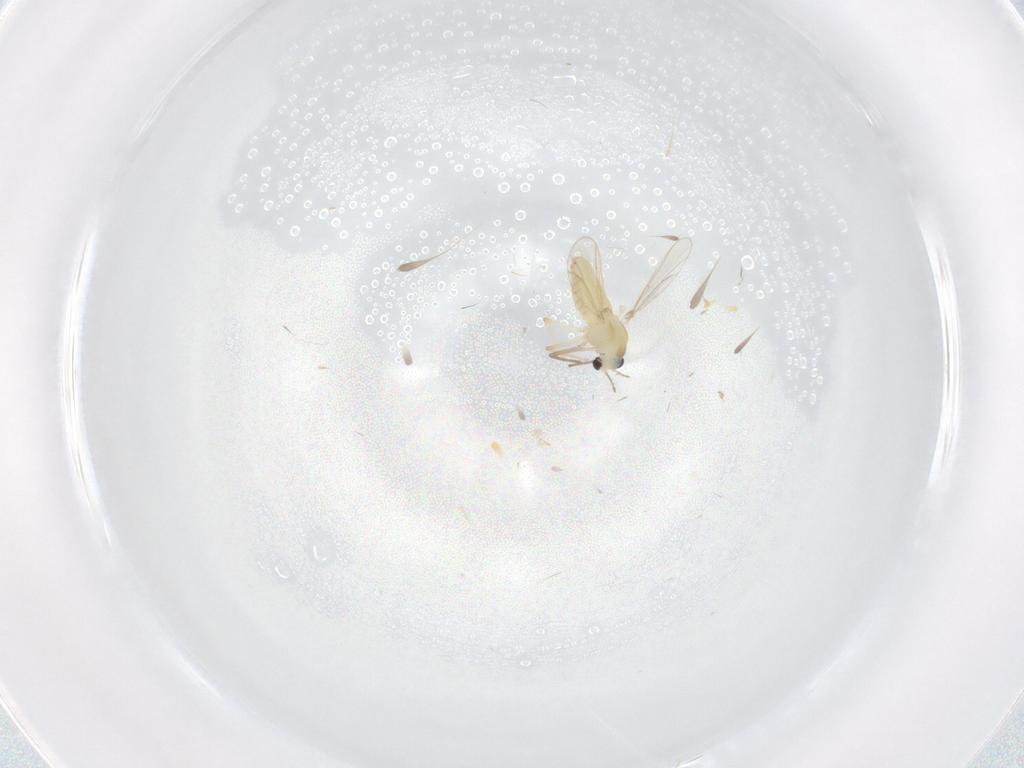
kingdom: Animalia
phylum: Arthropoda
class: Insecta
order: Diptera
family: Chironomidae
